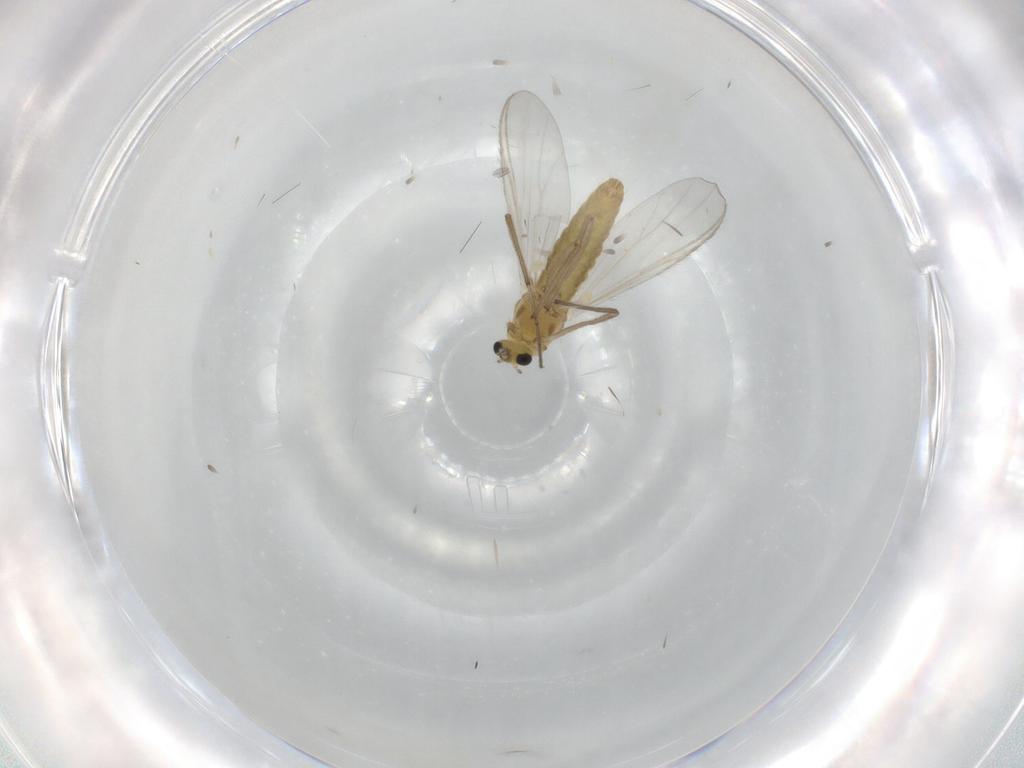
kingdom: Animalia
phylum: Arthropoda
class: Insecta
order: Diptera
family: Chironomidae
